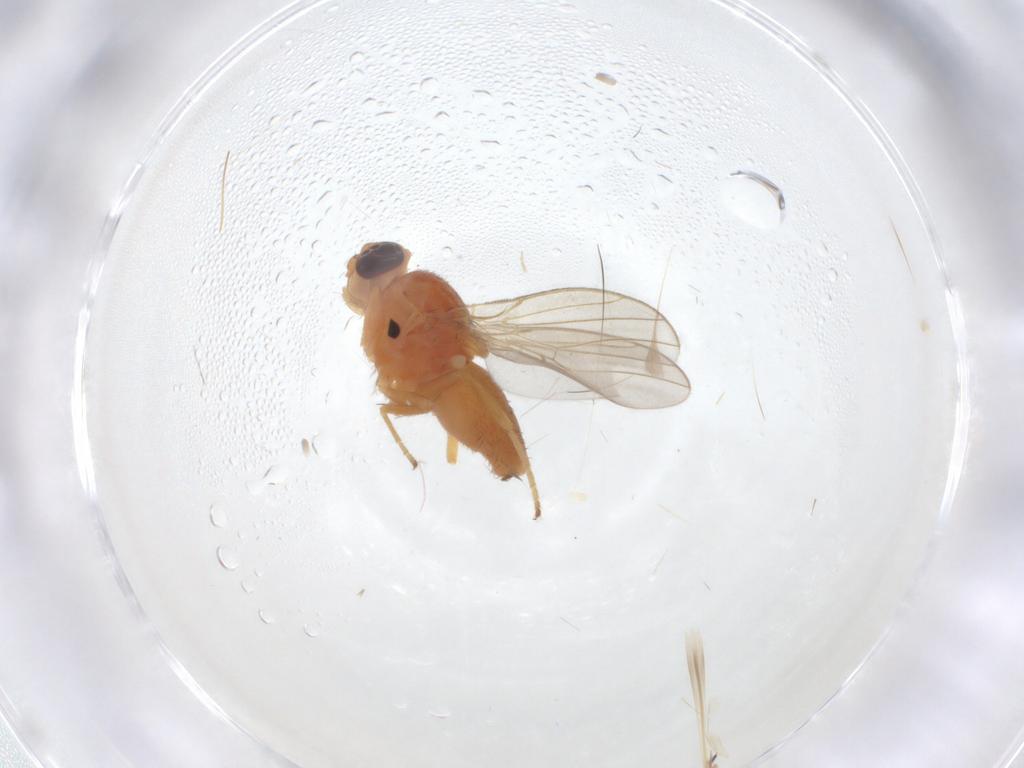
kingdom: Animalia
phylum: Arthropoda
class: Insecta
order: Diptera
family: Chloropidae
